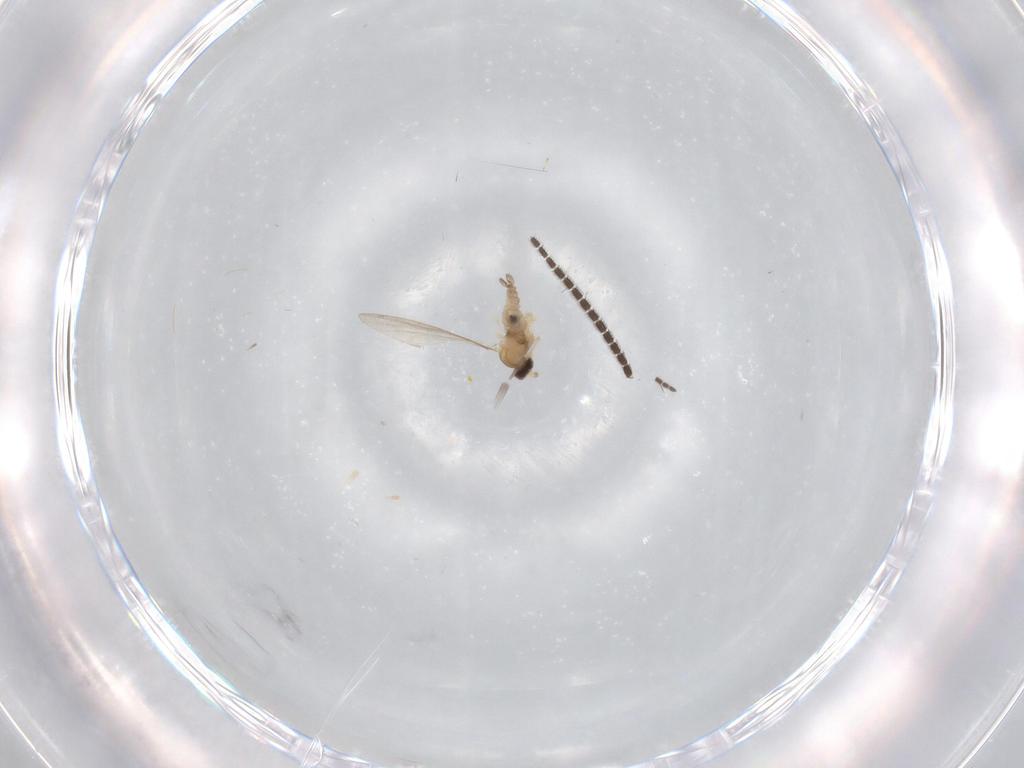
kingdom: Animalia
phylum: Arthropoda
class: Insecta
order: Diptera
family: Sciaridae
